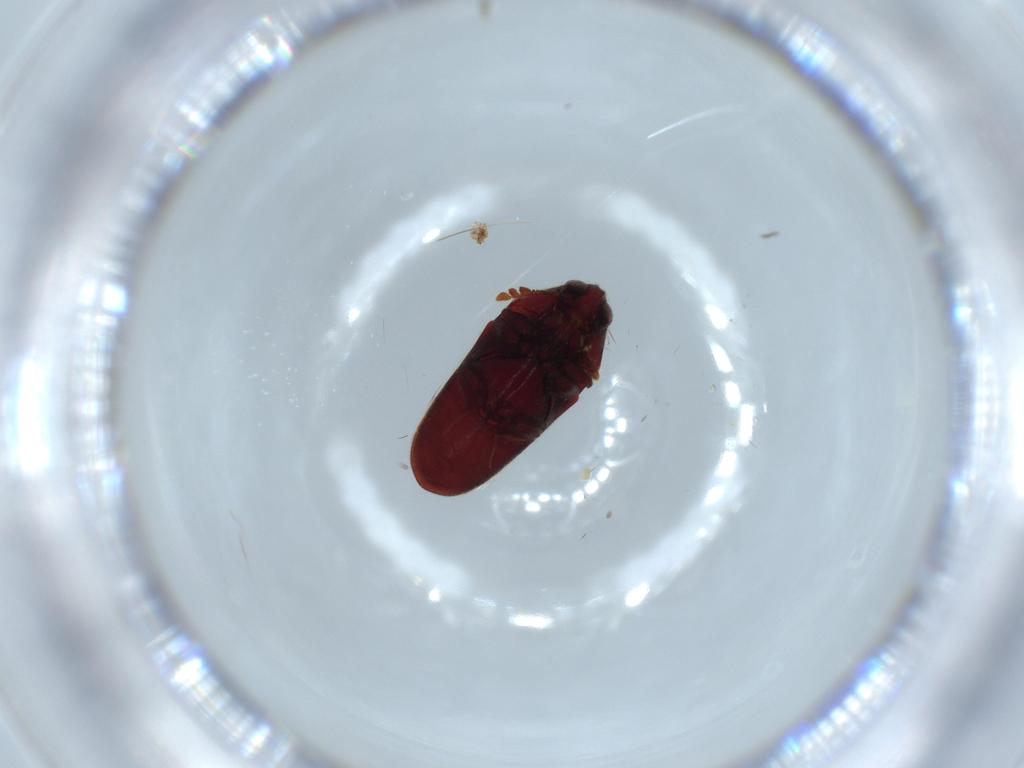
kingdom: Animalia
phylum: Arthropoda
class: Insecta
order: Coleoptera
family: Throscidae
